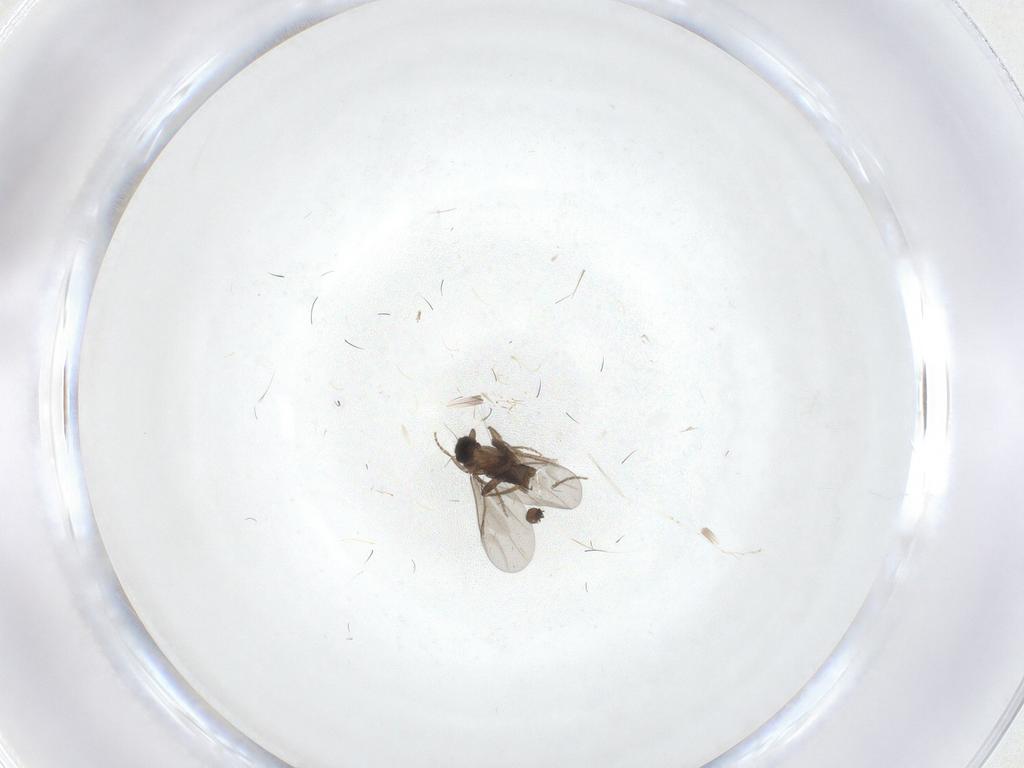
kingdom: Animalia
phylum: Arthropoda
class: Insecta
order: Diptera
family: Cecidomyiidae
